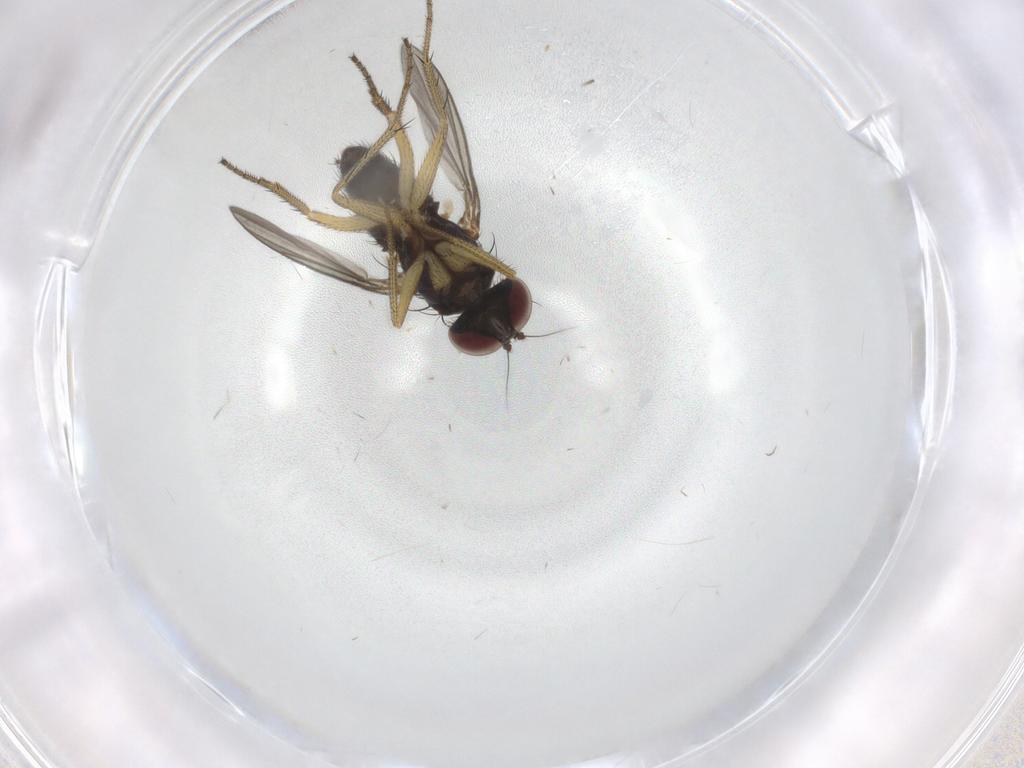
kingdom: Animalia
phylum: Arthropoda
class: Insecta
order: Diptera
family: Dolichopodidae
